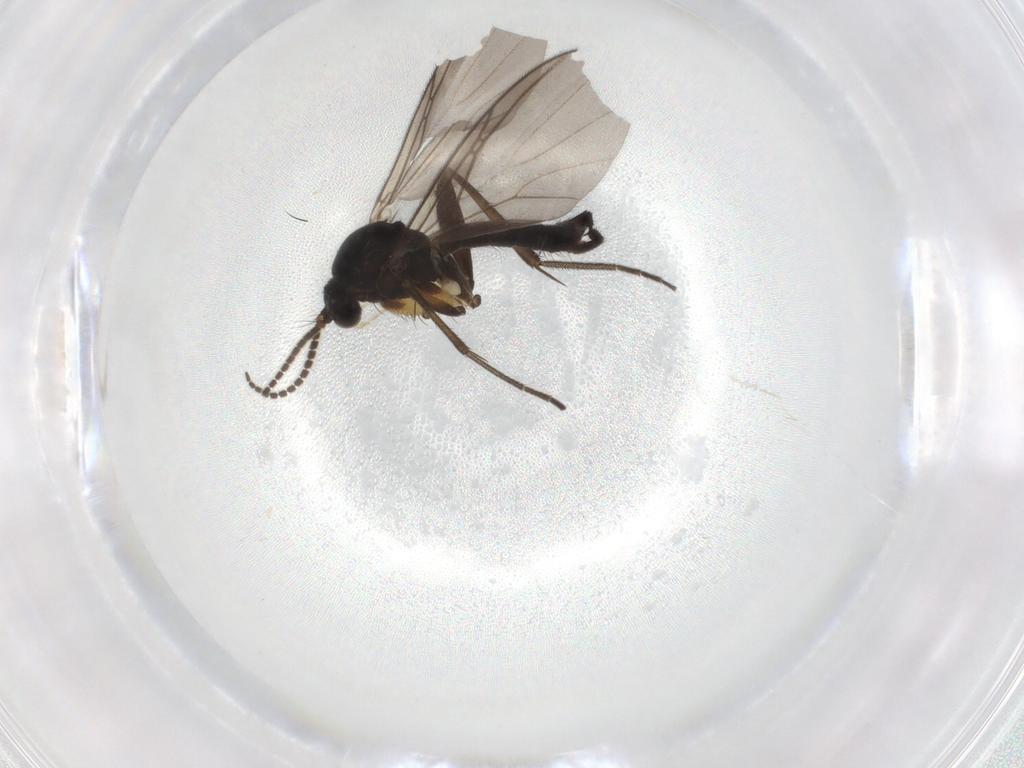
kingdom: Animalia
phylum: Arthropoda
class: Insecta
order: Diptera
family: Mycetophilidae
